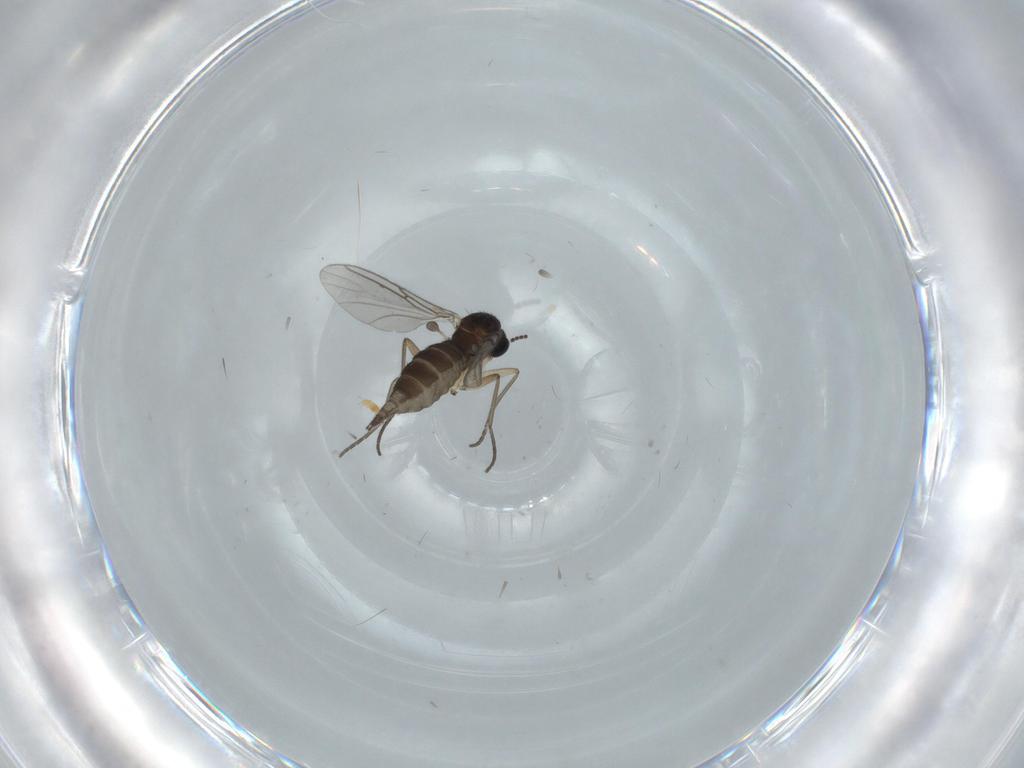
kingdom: Animalia
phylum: Arthropoda
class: Insecta
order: Diptera
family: Sciaridae
